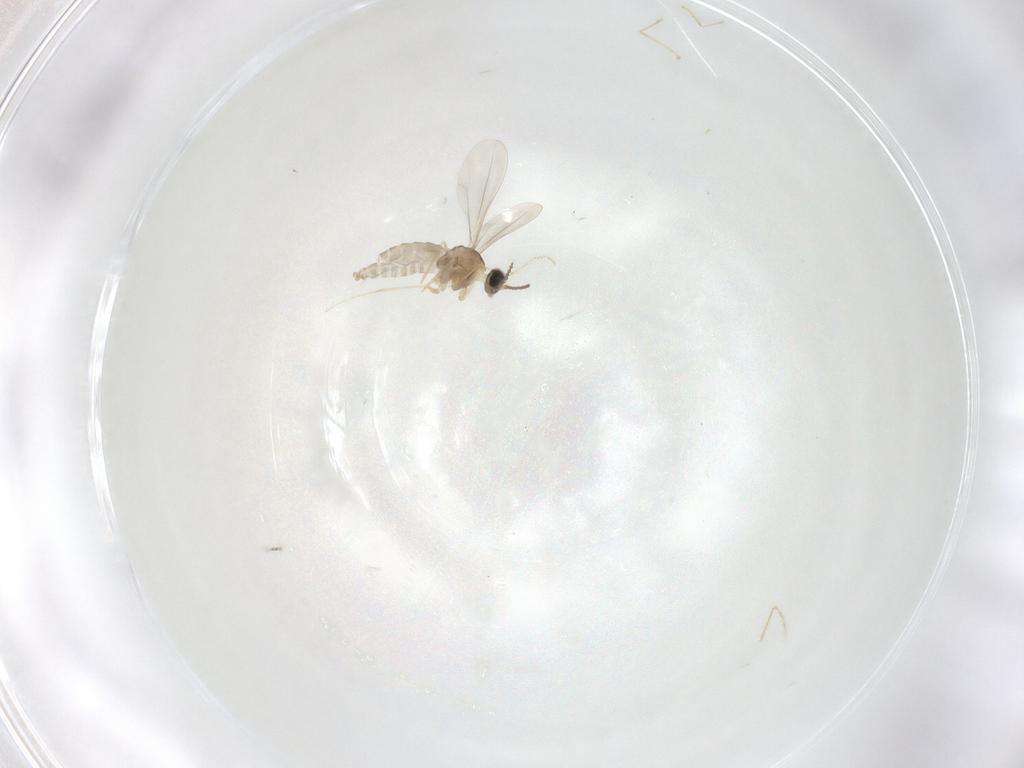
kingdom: Animalia
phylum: Arthropoda
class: Insecta
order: Diptera
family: Cecidomyiidae
